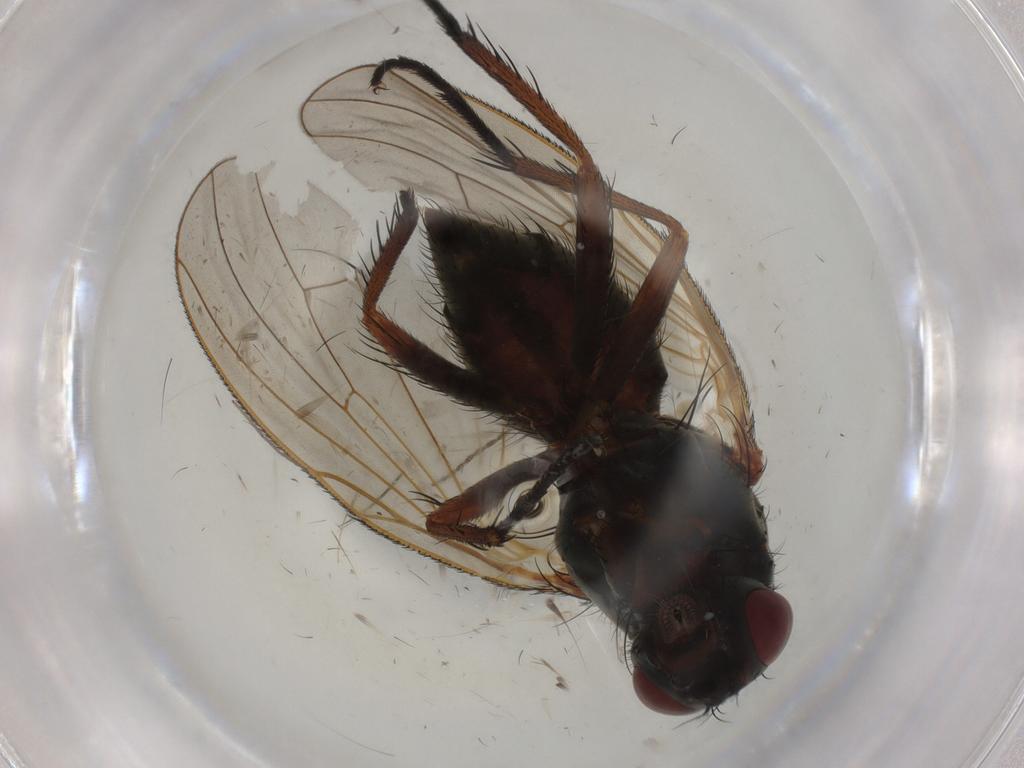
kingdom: Animalia
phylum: Arthropoda
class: Insecta
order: Diptera
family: Anthomyiidae
